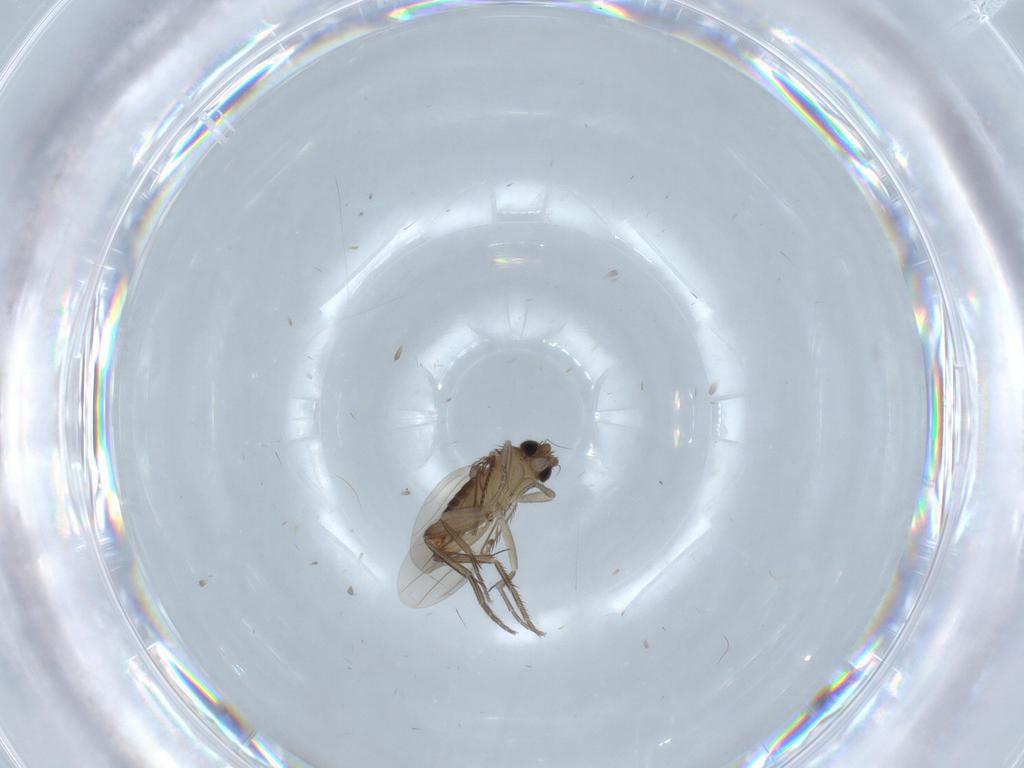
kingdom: Animalia
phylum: Arthropoda
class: Insecta
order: Diptera
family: Phoridae
